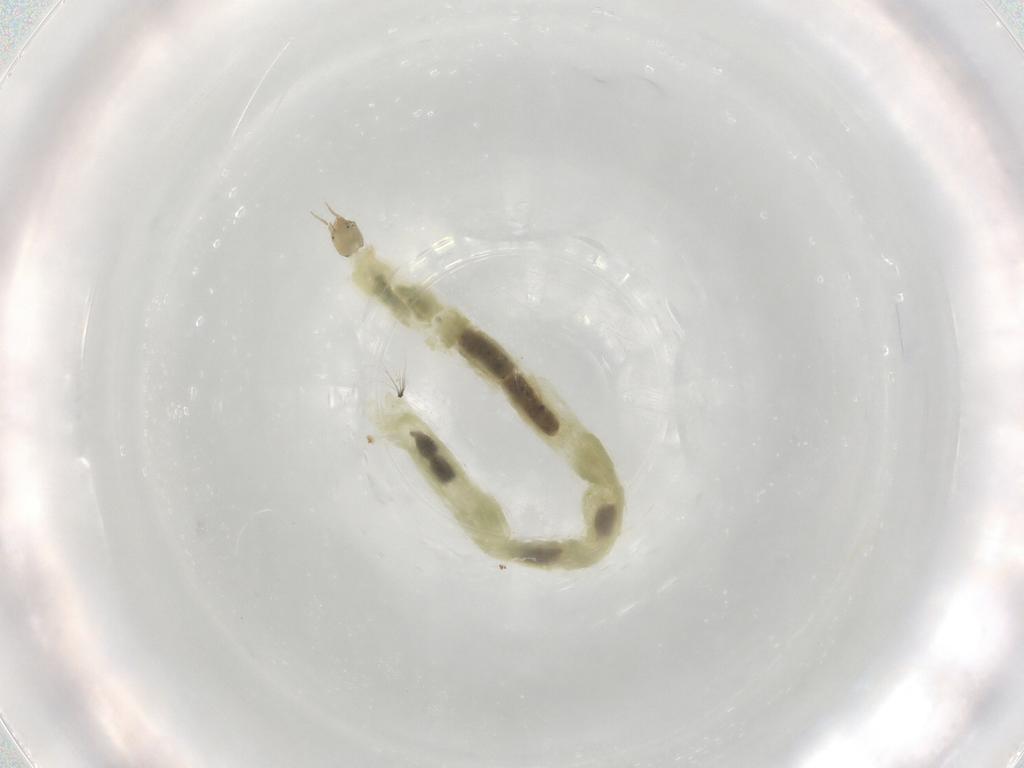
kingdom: Animalia
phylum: Arthropoda
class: Insecta
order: Diptera
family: Chironomidae
